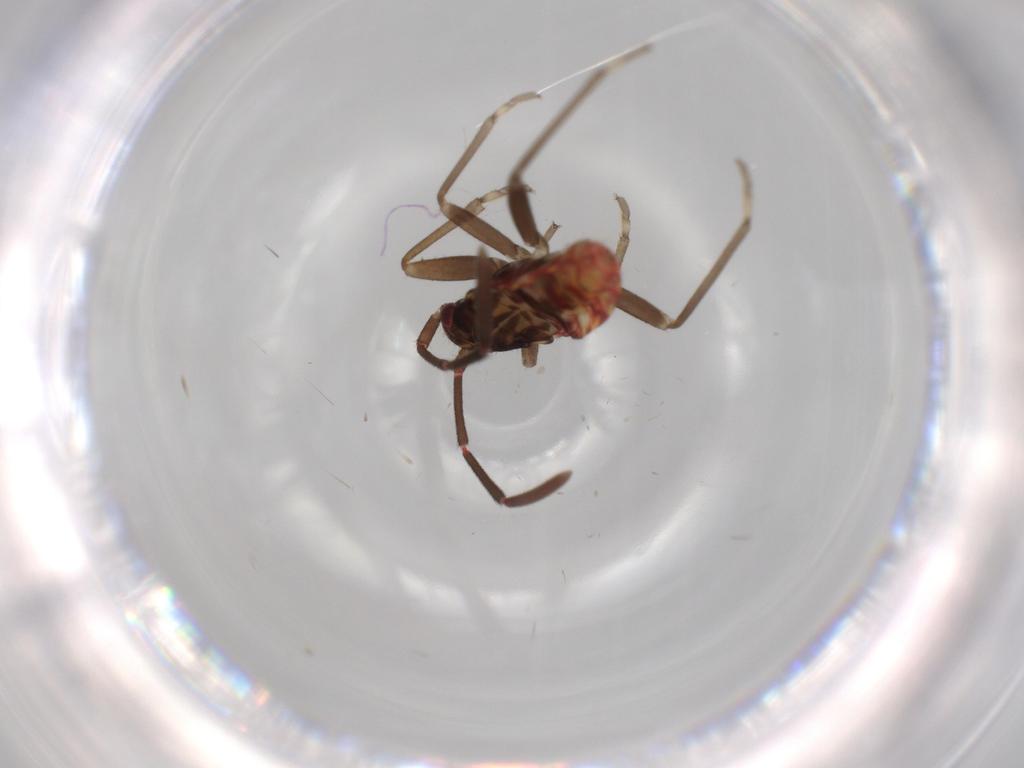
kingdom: Animalia
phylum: Arthropoda
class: Insecta
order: Hemiptera
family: Rhyparochromidae
